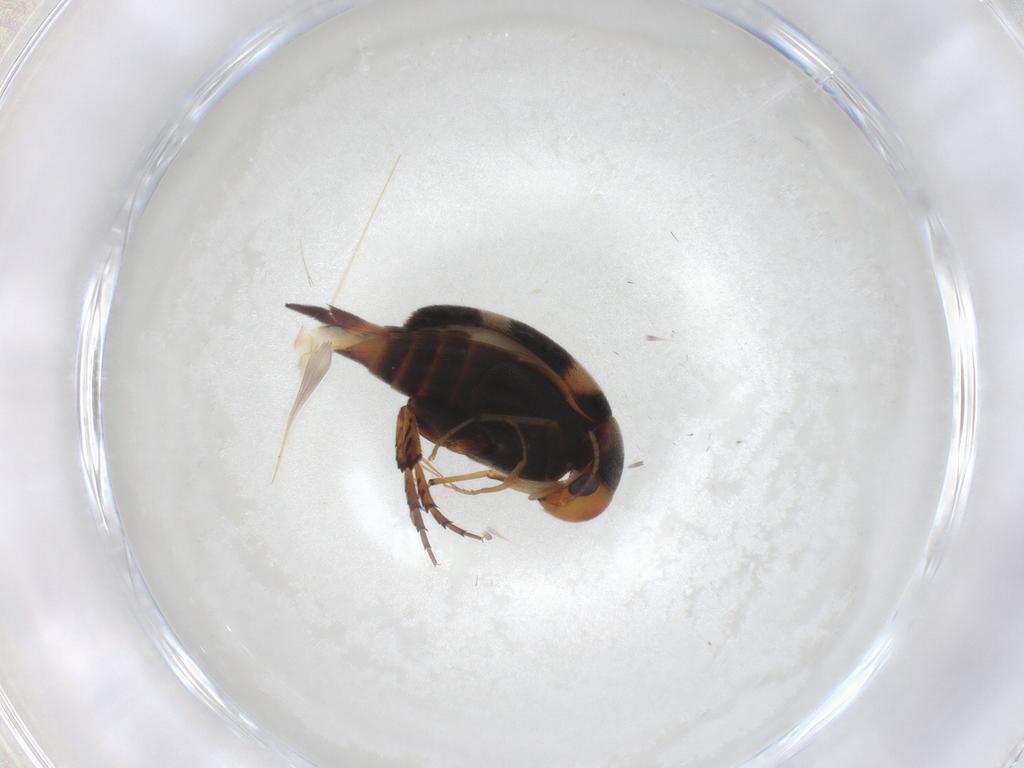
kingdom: Animalia
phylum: Arthropoda
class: Insecta
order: Coleoptera
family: Mordellidae
